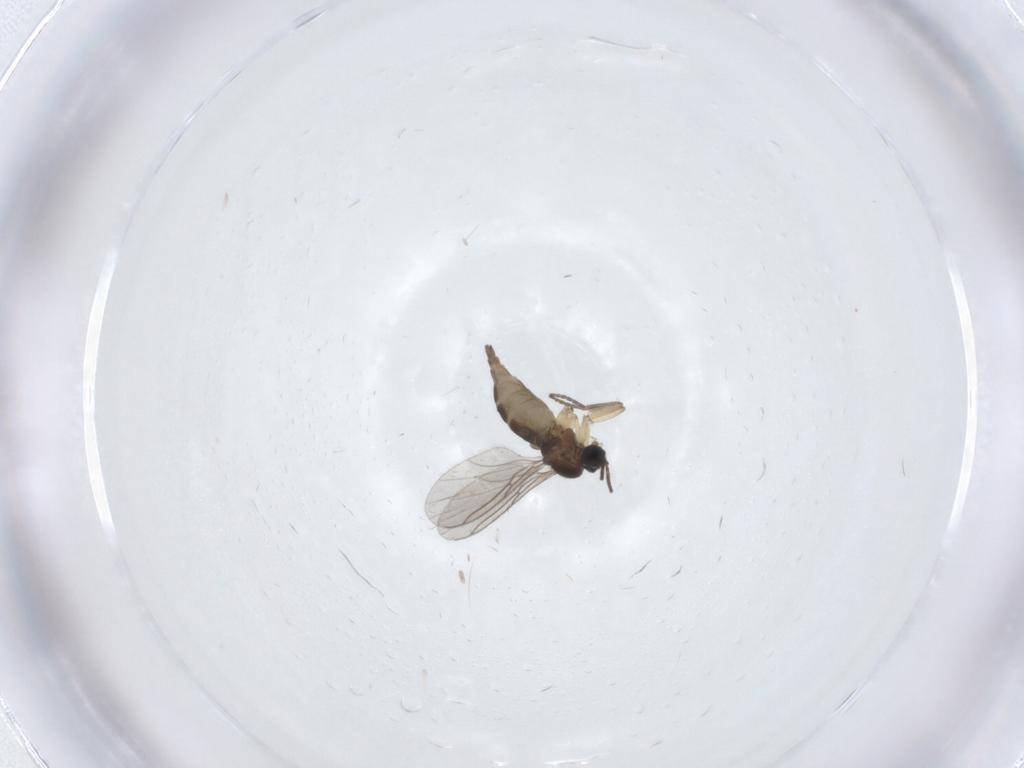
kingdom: Animalia
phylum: Arthropoda
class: Insecta
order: Diptera
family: Sciaridae
